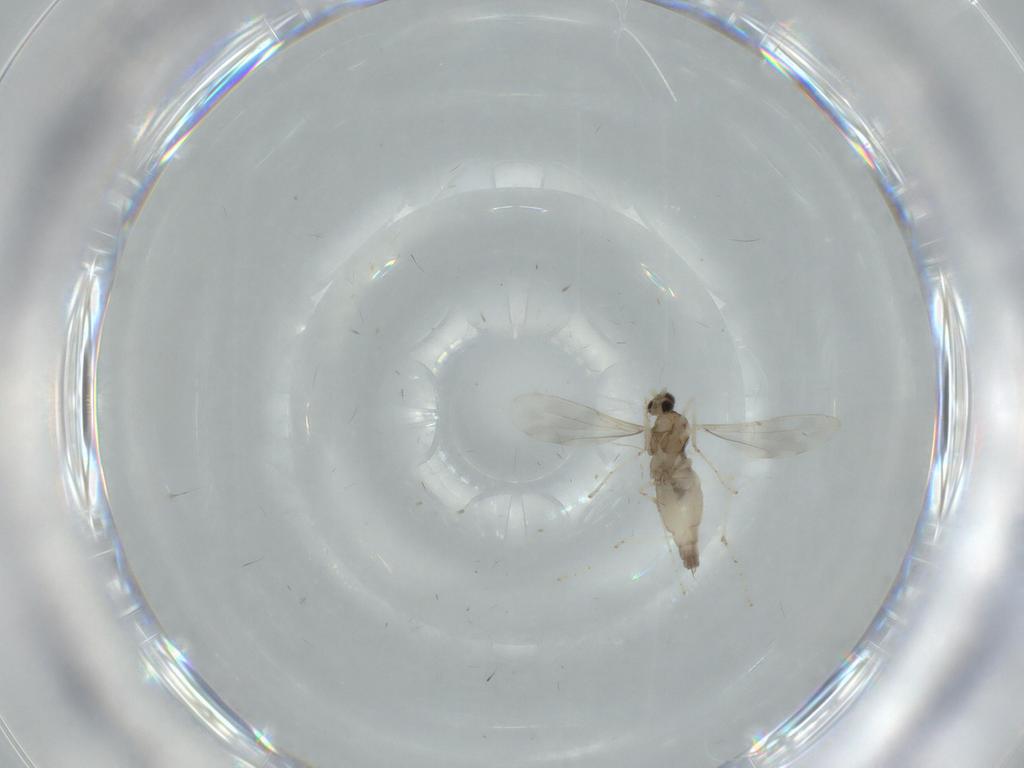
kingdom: Animalia
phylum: Arthropoda
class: Insecta
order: Diptera
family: Cecidomyiidae
